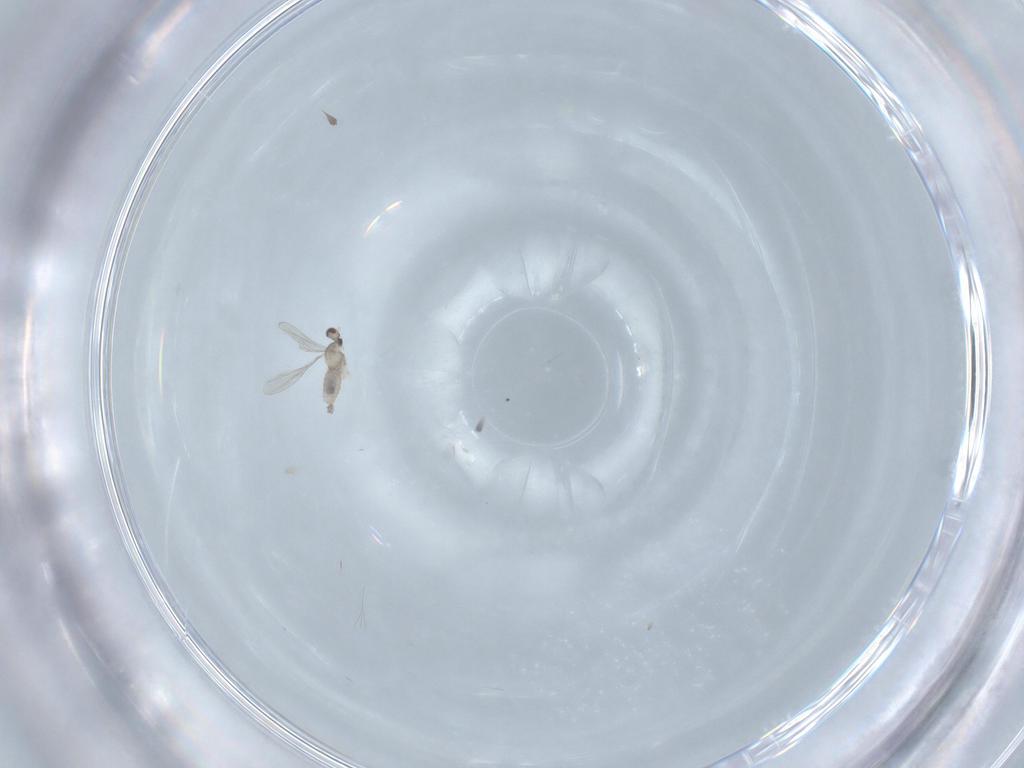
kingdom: Animalia
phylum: Arthropoda
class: Insecta
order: Diptera
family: Cecidomyiidae
